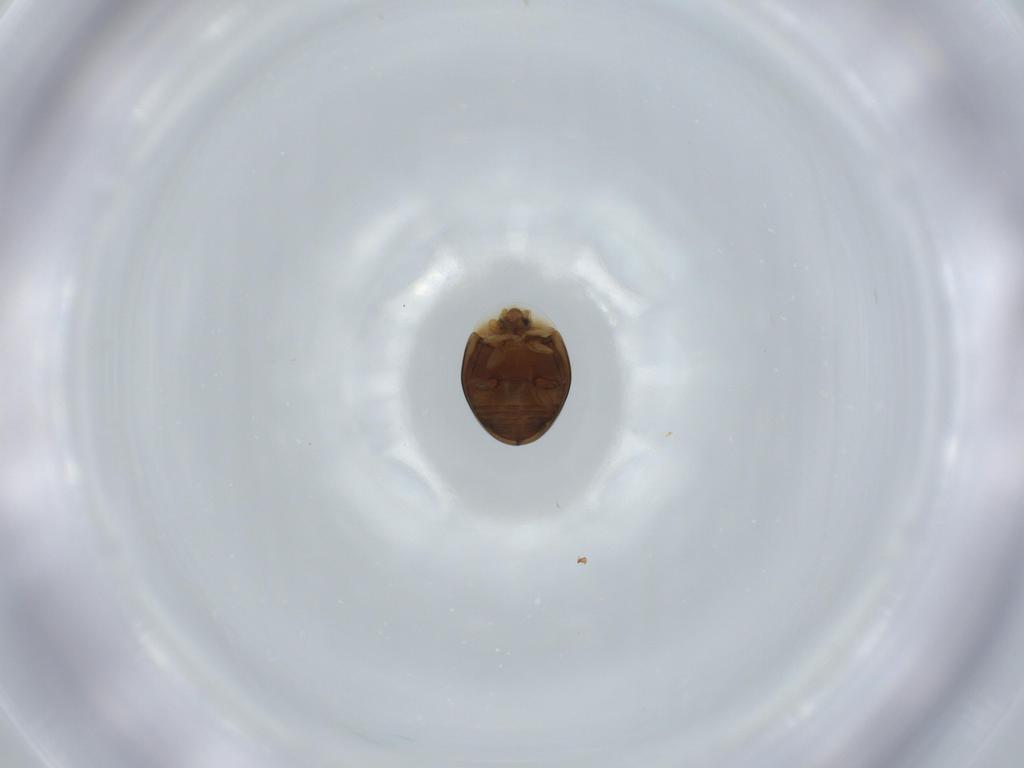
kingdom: Animalia
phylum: Arthropoda
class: Insecta
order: Coleoptera
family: Corylophidae
